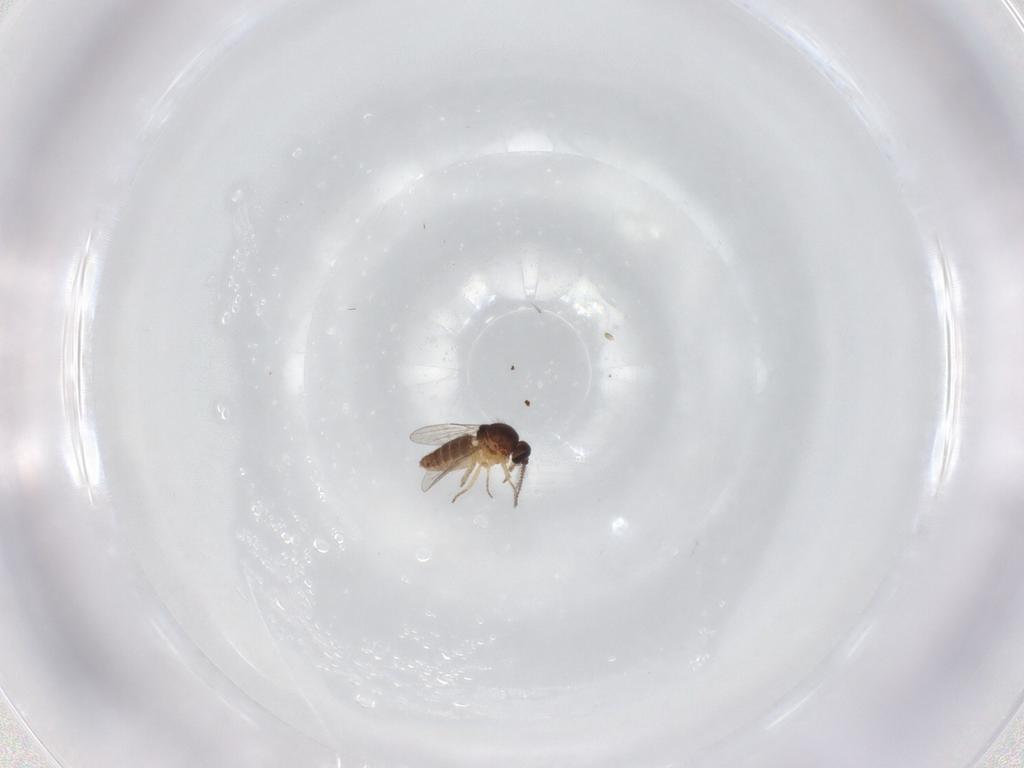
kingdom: Animalia
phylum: Arthropoda
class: Insecta
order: Diptera
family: Ceratopogonidae
